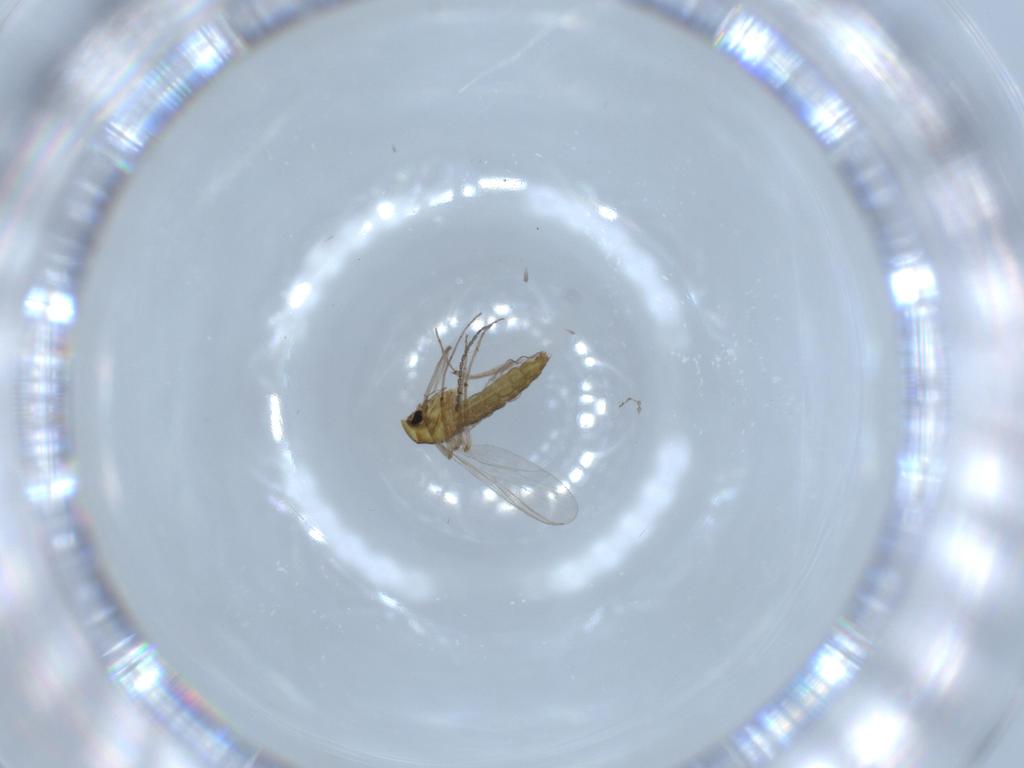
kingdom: Animalia
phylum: Arthropoda
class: Insecta
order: Diptera
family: Chironomidae
